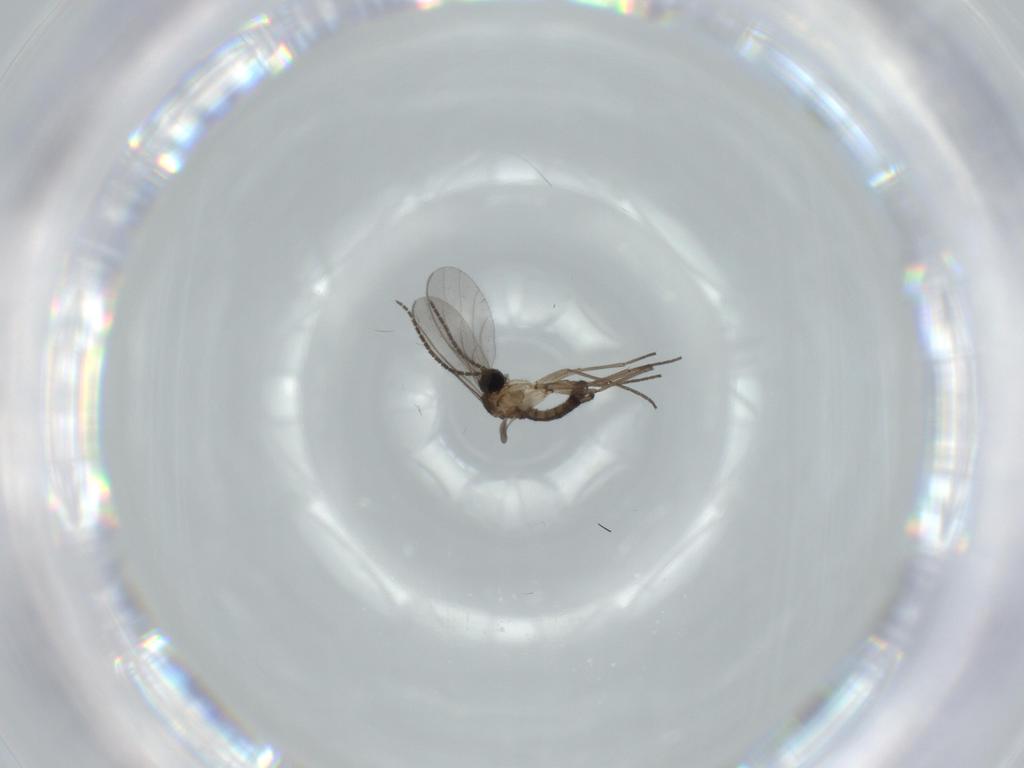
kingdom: Animalia
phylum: Arthropoda
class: Insecta
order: Diptera
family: Sciaridae
